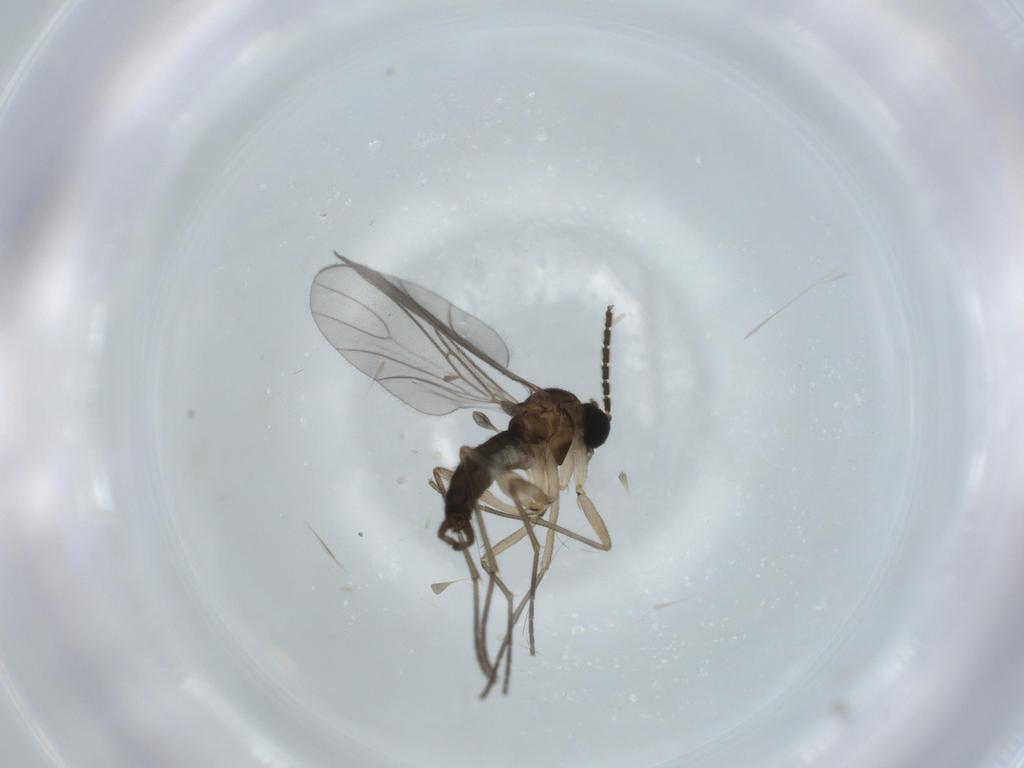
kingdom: Animalia
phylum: Arthropoda
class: Insecta
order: Diptera
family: Sciaridae
